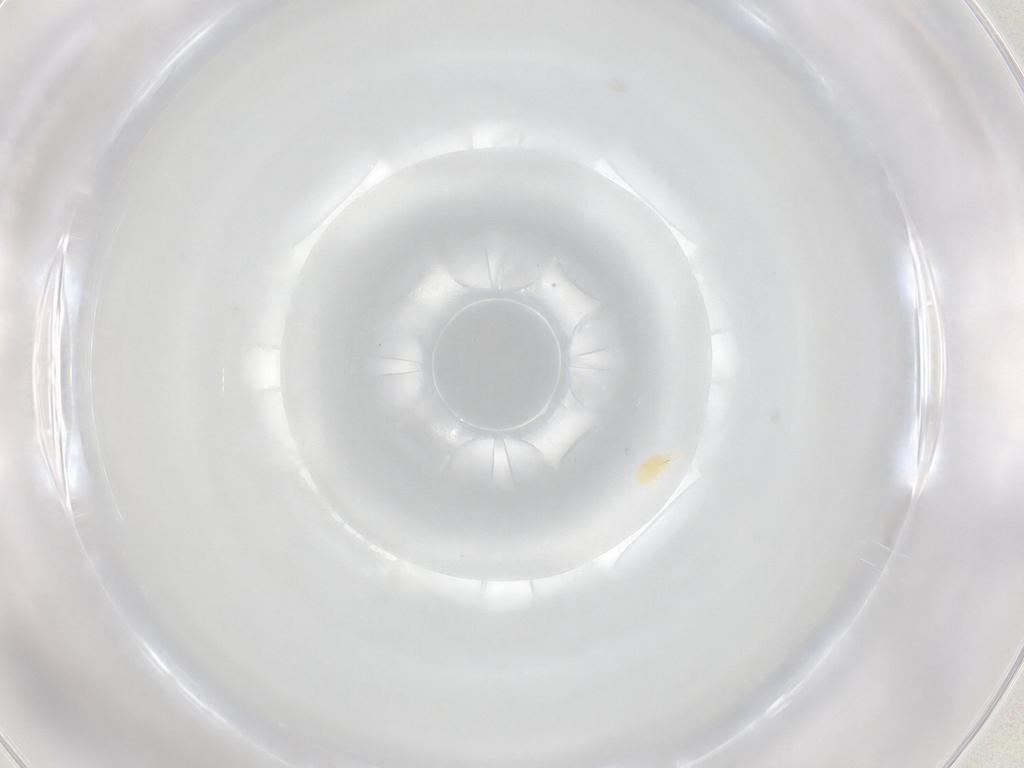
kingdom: Animalia
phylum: Arthropoda
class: Arachnida
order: Trombidiformes
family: Stigmaeidae
